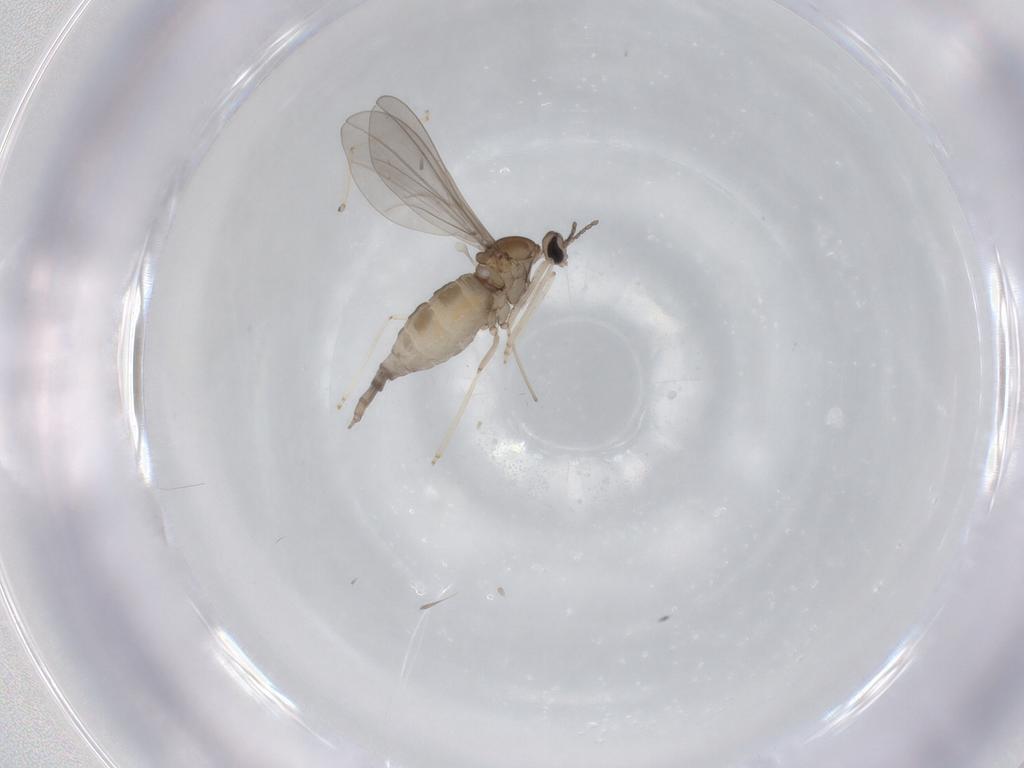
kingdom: Animalia
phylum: Arthropoda
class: Insecta
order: Diptera
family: Cecidomyiidae
